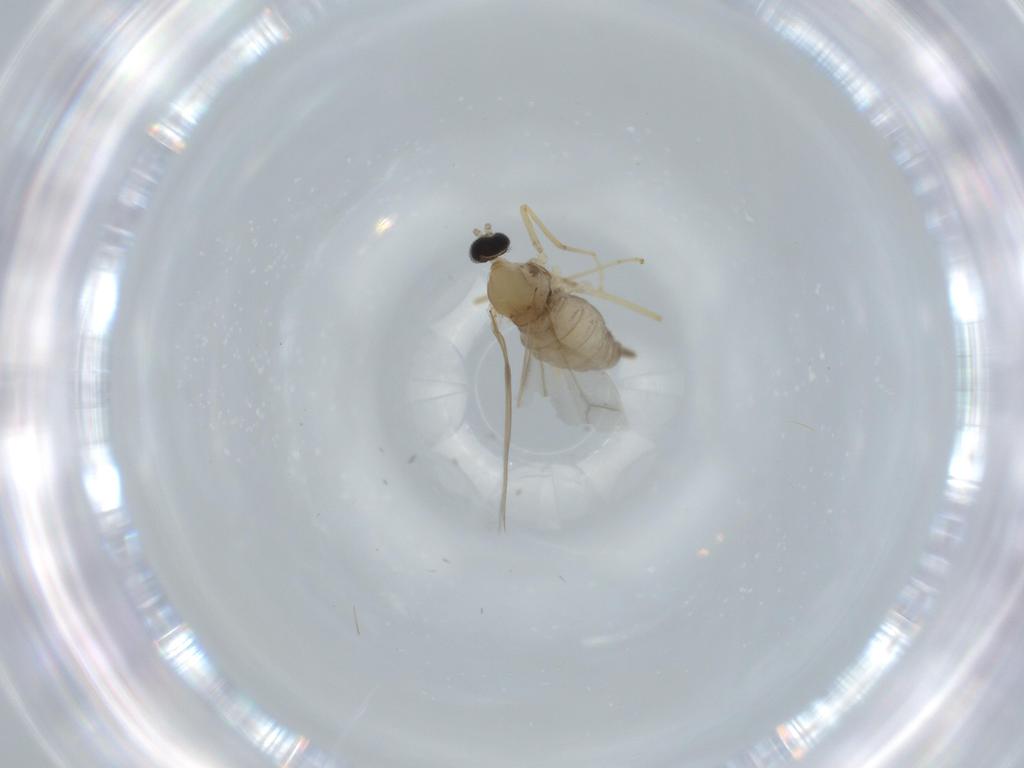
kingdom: Animalia
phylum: Arthropoda
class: Insecta
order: Diptera
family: Cecidomyiidae
